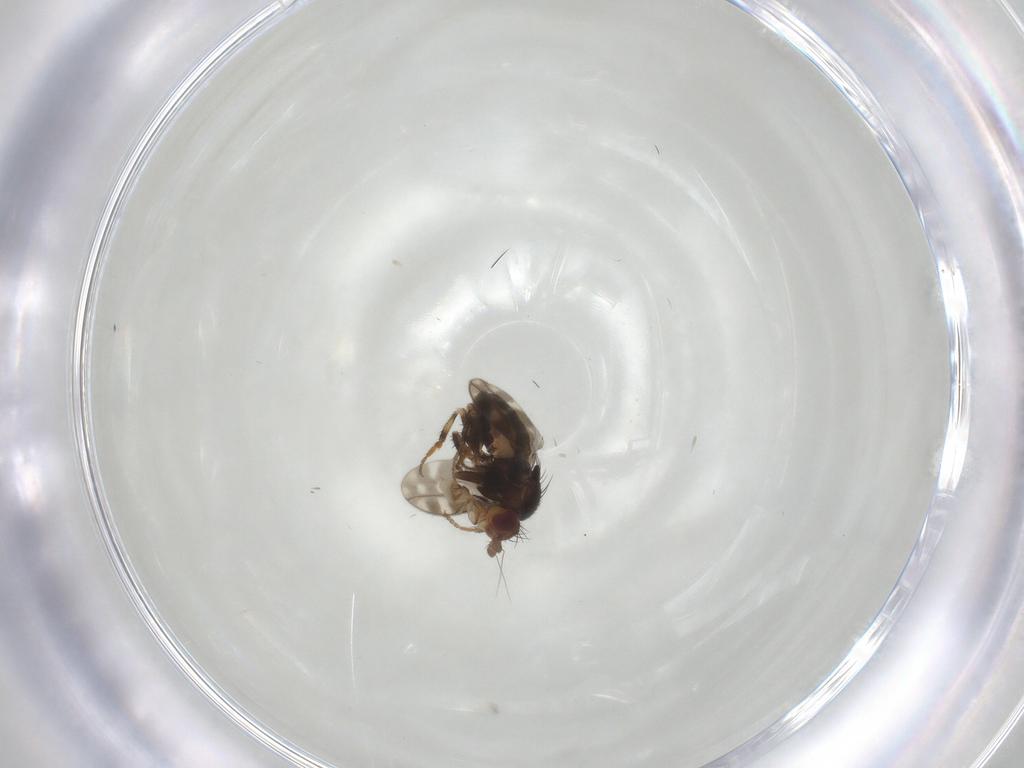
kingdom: Animalia
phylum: Arthropoda
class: Insecta
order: Diptera
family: Sphaeroceridae
